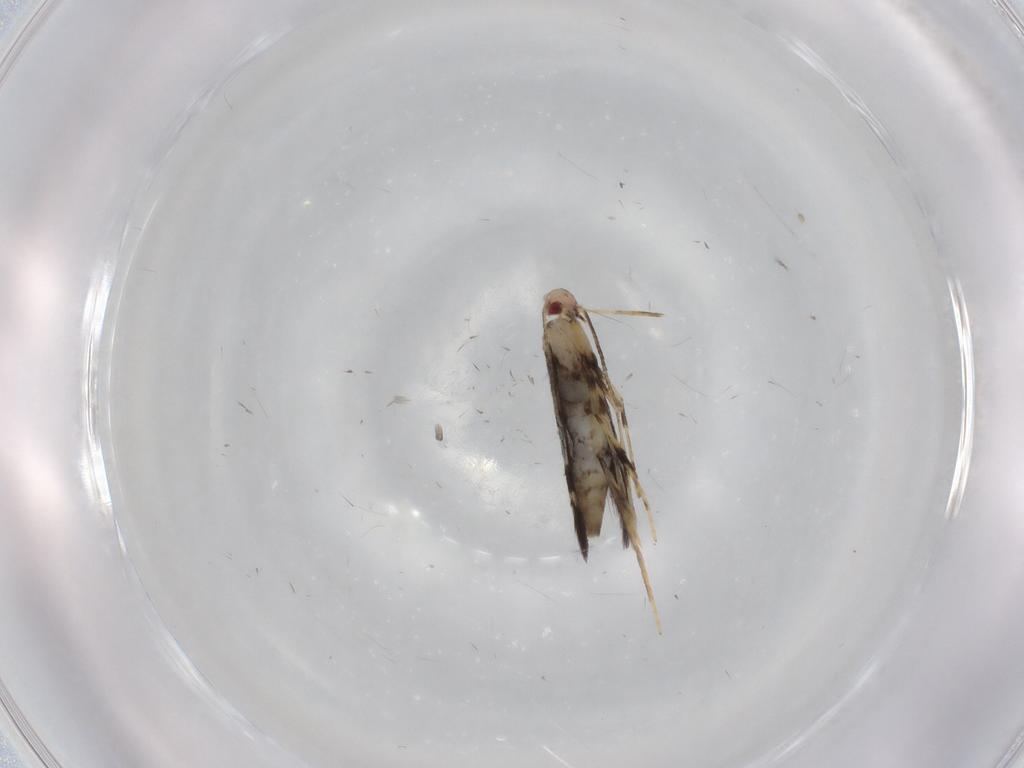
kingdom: Animalia
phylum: Arthropoda
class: Insecta
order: Lepidoptera
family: Gracillariidae
